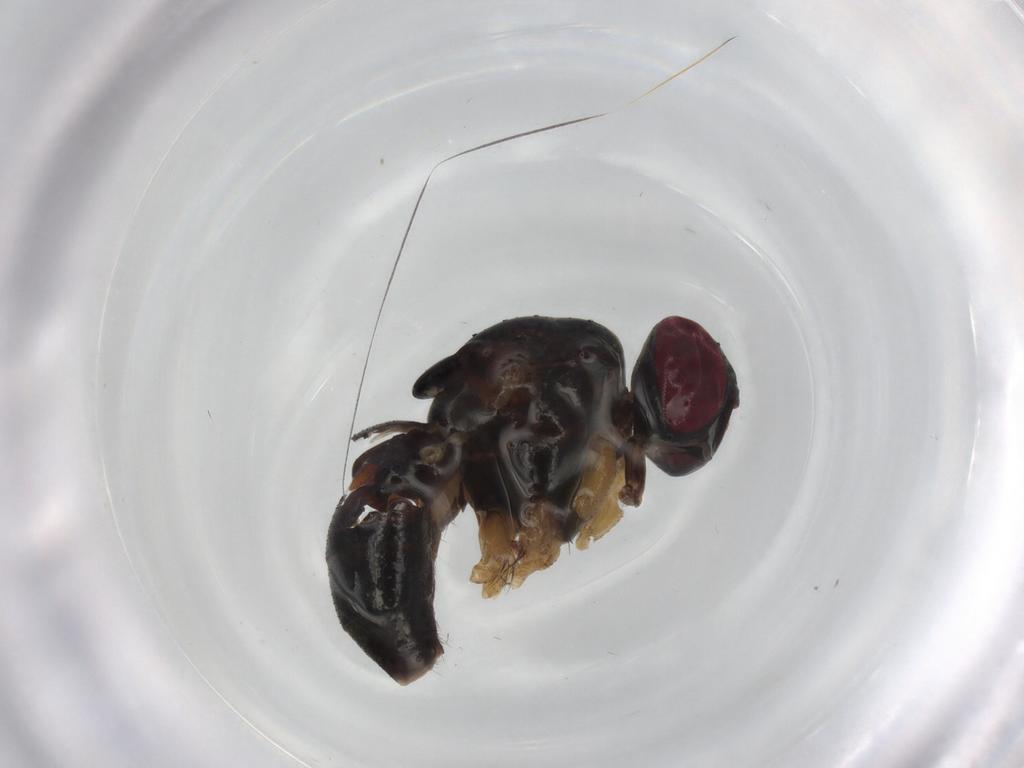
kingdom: Animalia
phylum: Arthropoda
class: Insecta
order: Diptera
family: Muscidae
